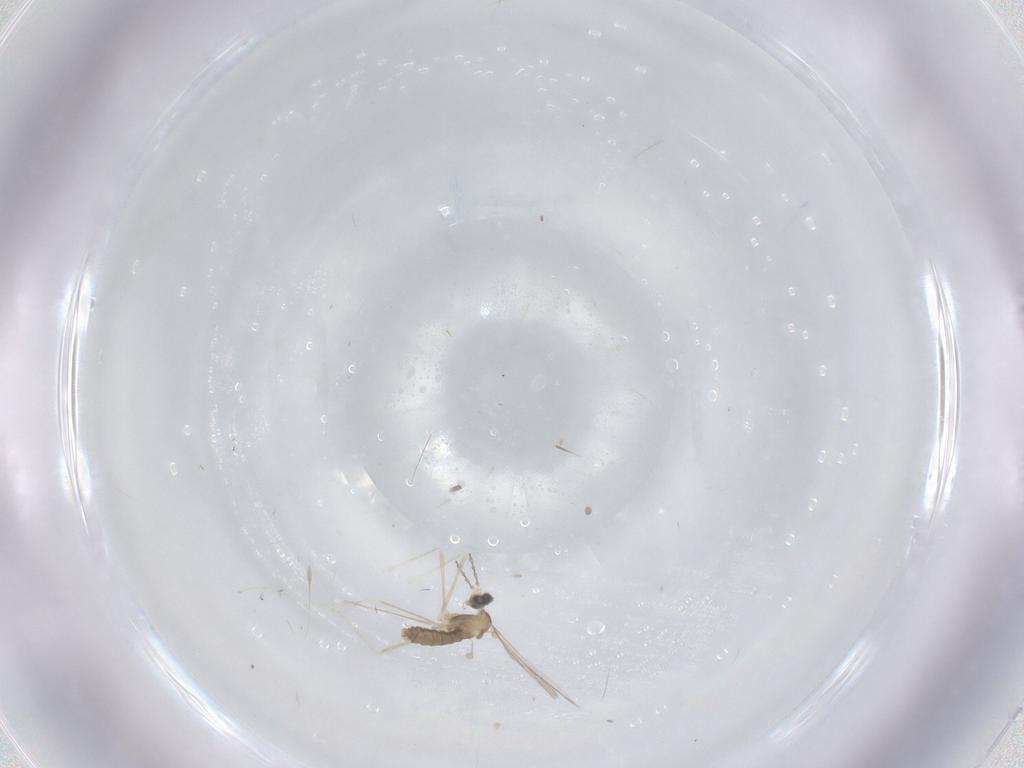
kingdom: Animalia
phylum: Arthropoda
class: Insecta
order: Diptera
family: Cecidomyiidae
